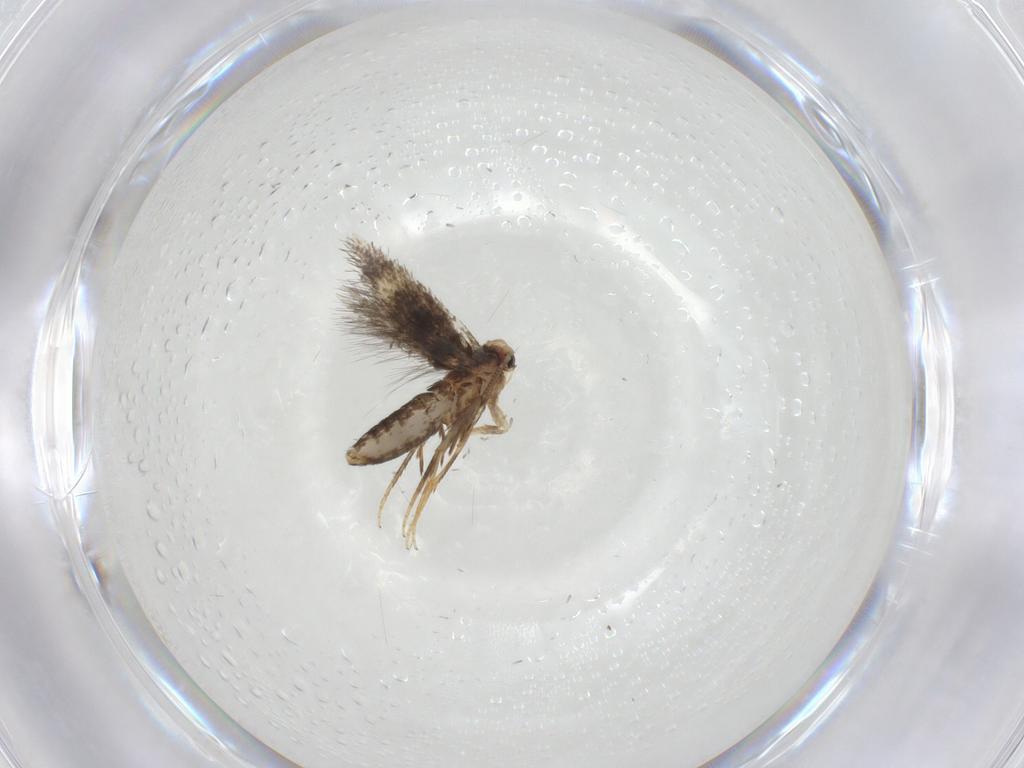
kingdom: Animalia
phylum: Arthropoda
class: Insecta
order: Lepidoptera
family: Nepticulidae
